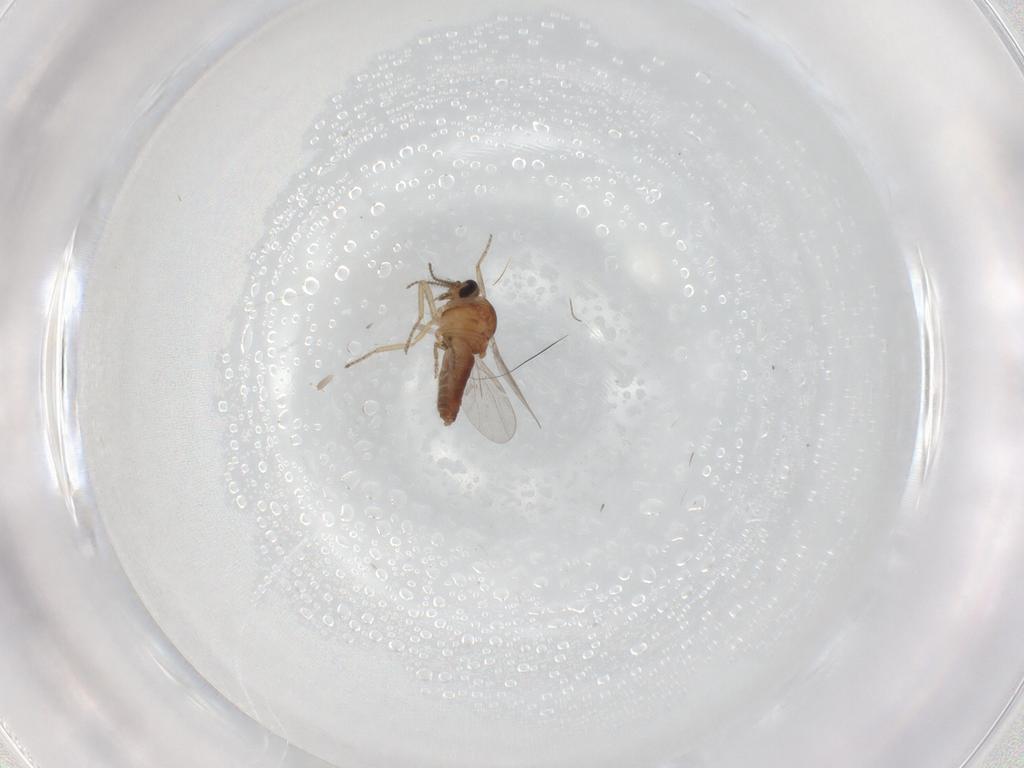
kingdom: Animalia
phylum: Arthropoda
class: Insecta
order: Diptera
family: Ceratopogonidae
